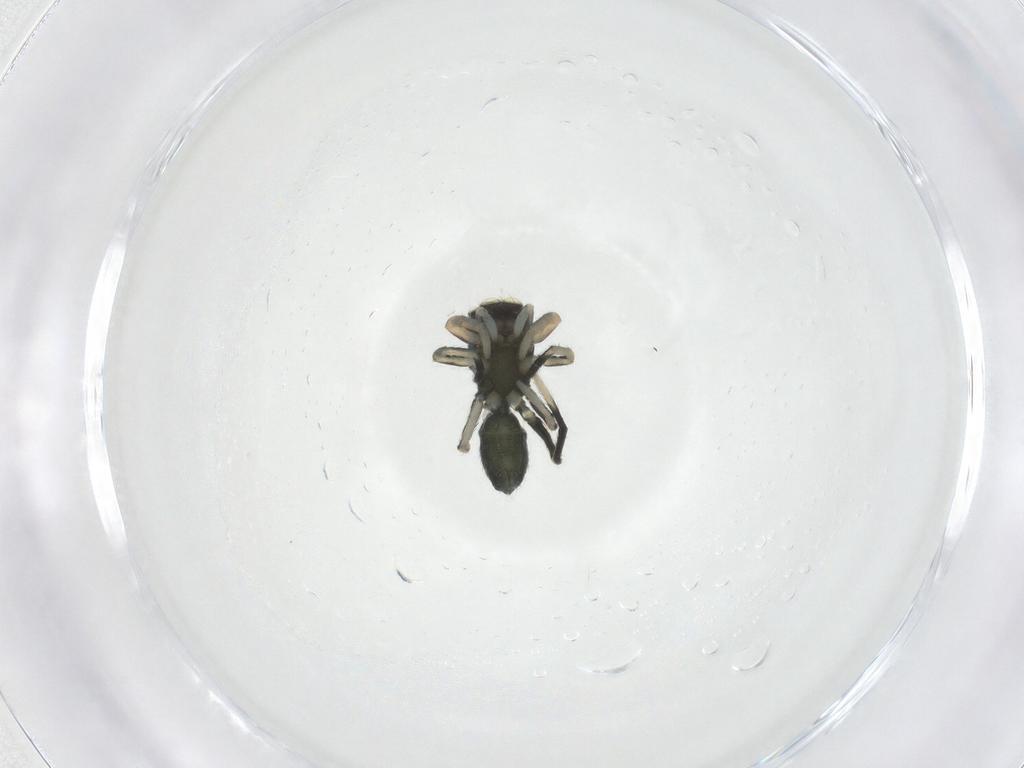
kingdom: Animalia
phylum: Arthropoda
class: Arachnida
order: Araneae
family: Salticidae
